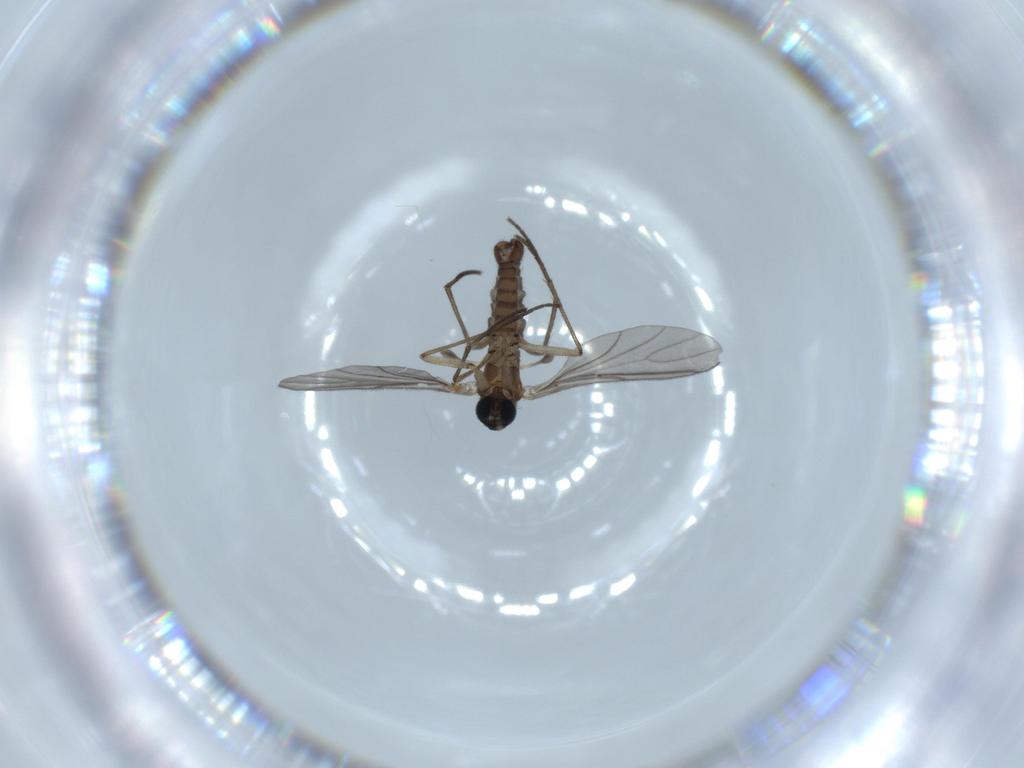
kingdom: Animalia
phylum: Arthropoda
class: Insecta
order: Diptera
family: Sciaridae
